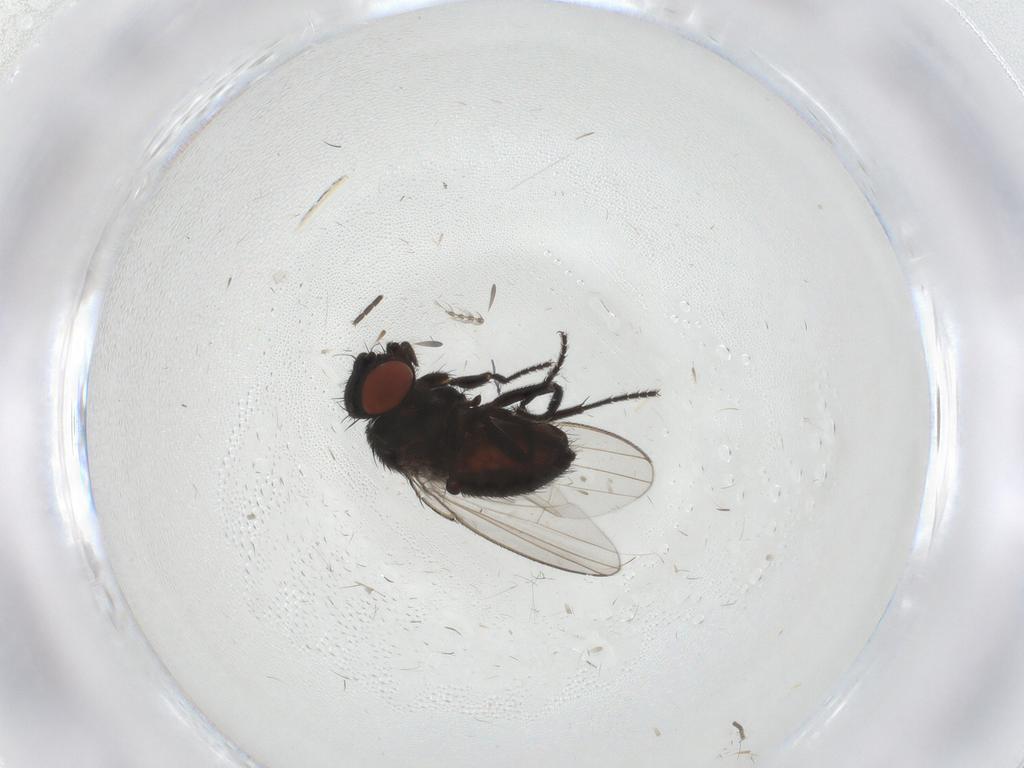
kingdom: Animalia
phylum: Arthropoda
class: Insecta
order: Diptera
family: Milichiidae
